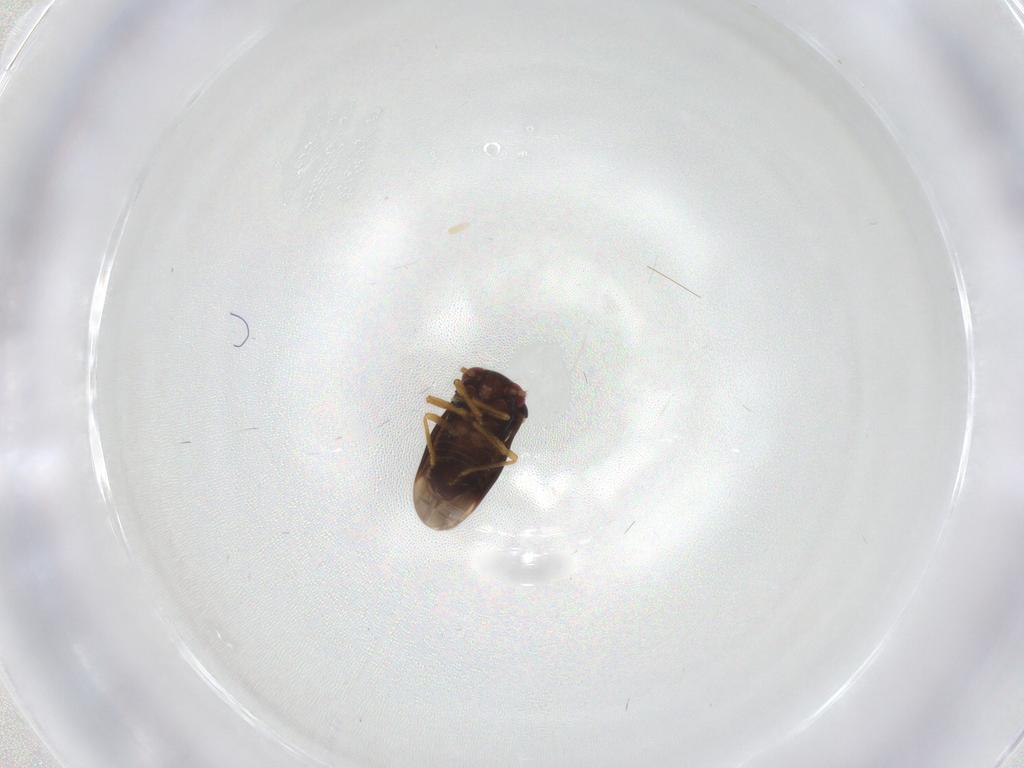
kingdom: Animalia
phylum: Arthropoda
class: Insecta
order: Hemiptera
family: Schizopteridae
